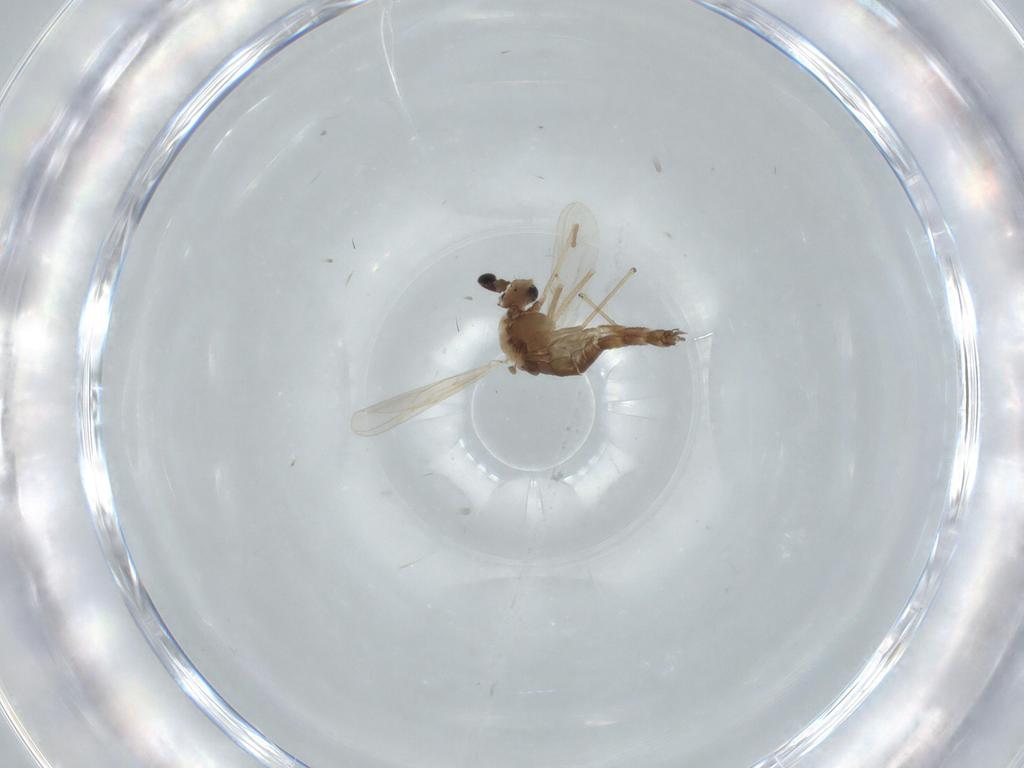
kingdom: Animalia
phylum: Arthropoda
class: Insecta
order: Diptera
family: Chironomidae
